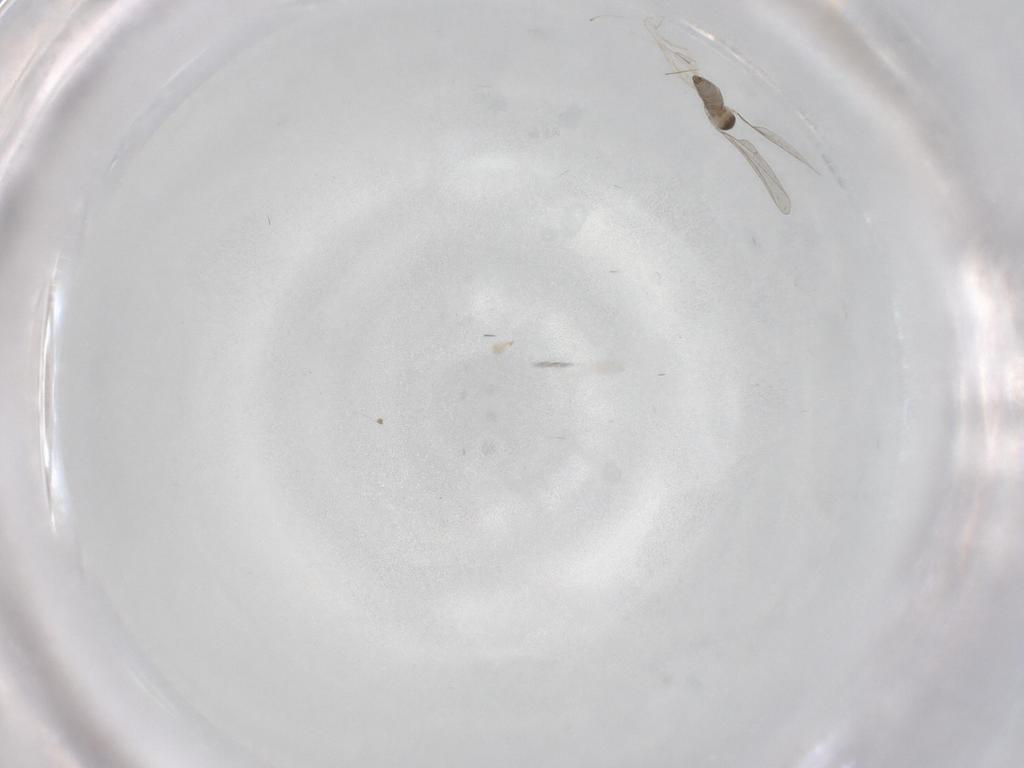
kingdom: Animalia
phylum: Arthropoda
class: Insecta
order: Diptera
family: Cecidomyiidae
